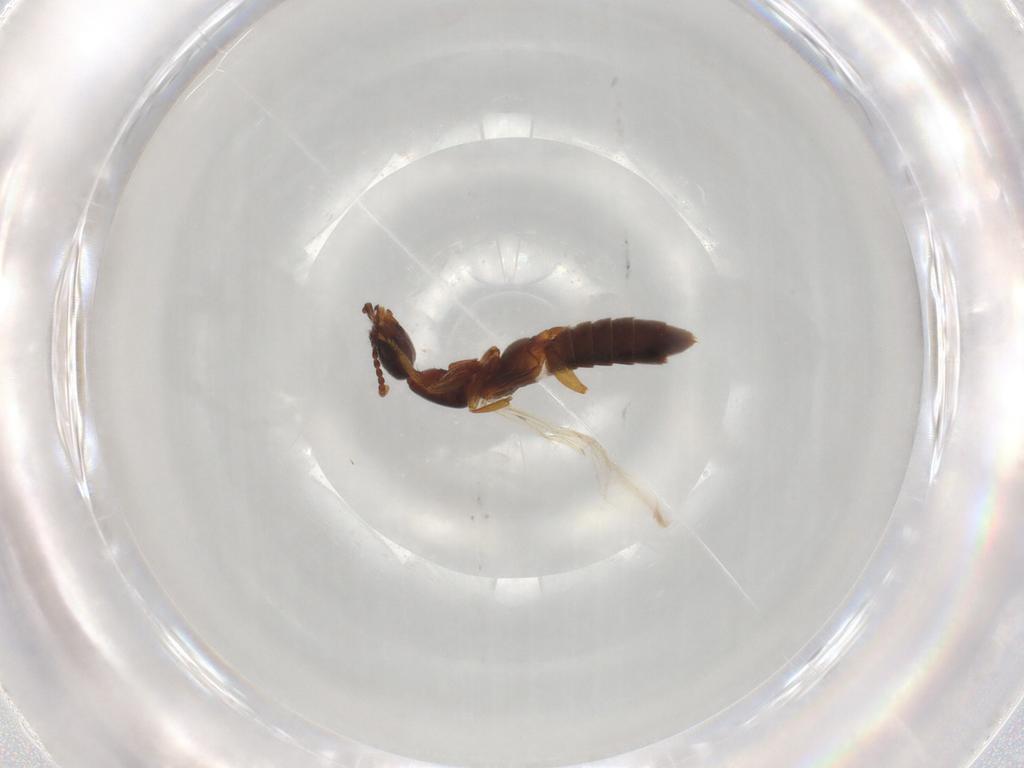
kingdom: Animalia
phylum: Arthropoda
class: Insecta
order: Coleoptera
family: Staphylinidae
